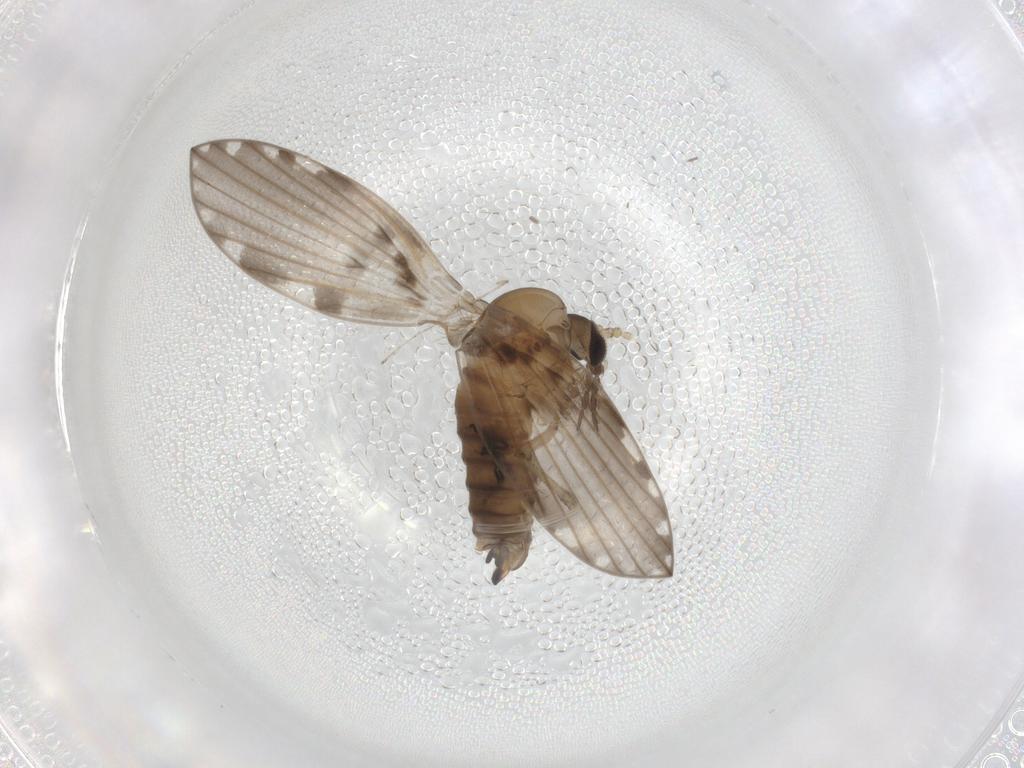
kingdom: Animalia
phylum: Arthropoda
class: Insecta
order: Diptera
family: Psychodidae
